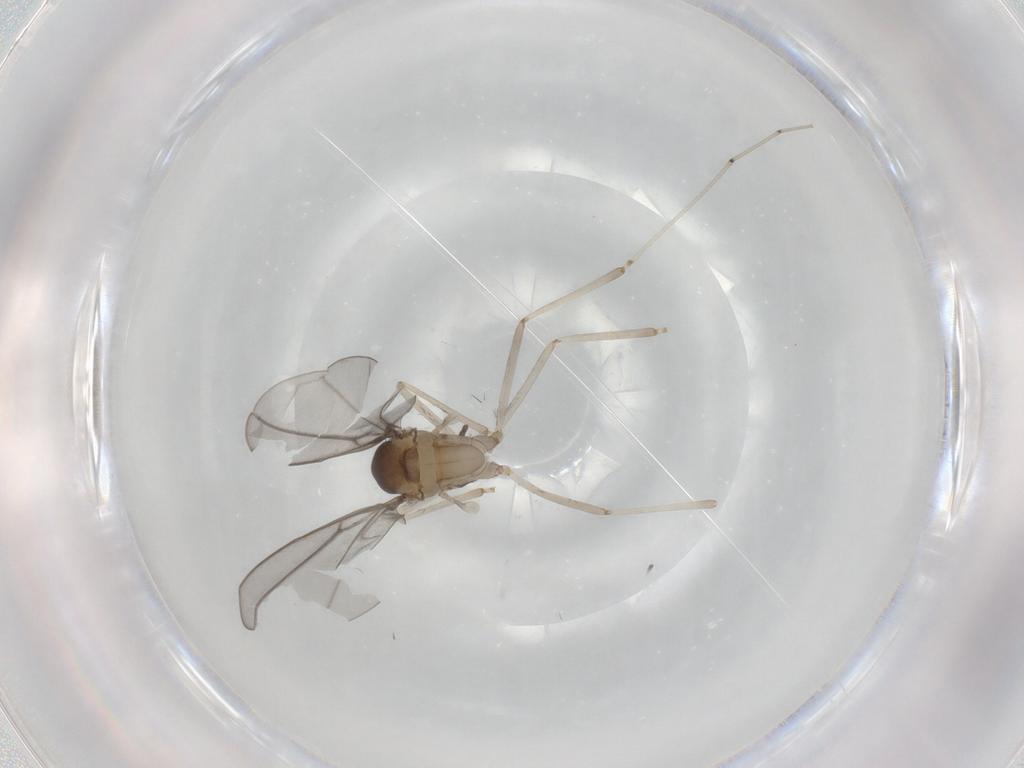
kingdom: Animalia
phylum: Arthropoda
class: Insecta
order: Diptera
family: Cecidomyiidae
